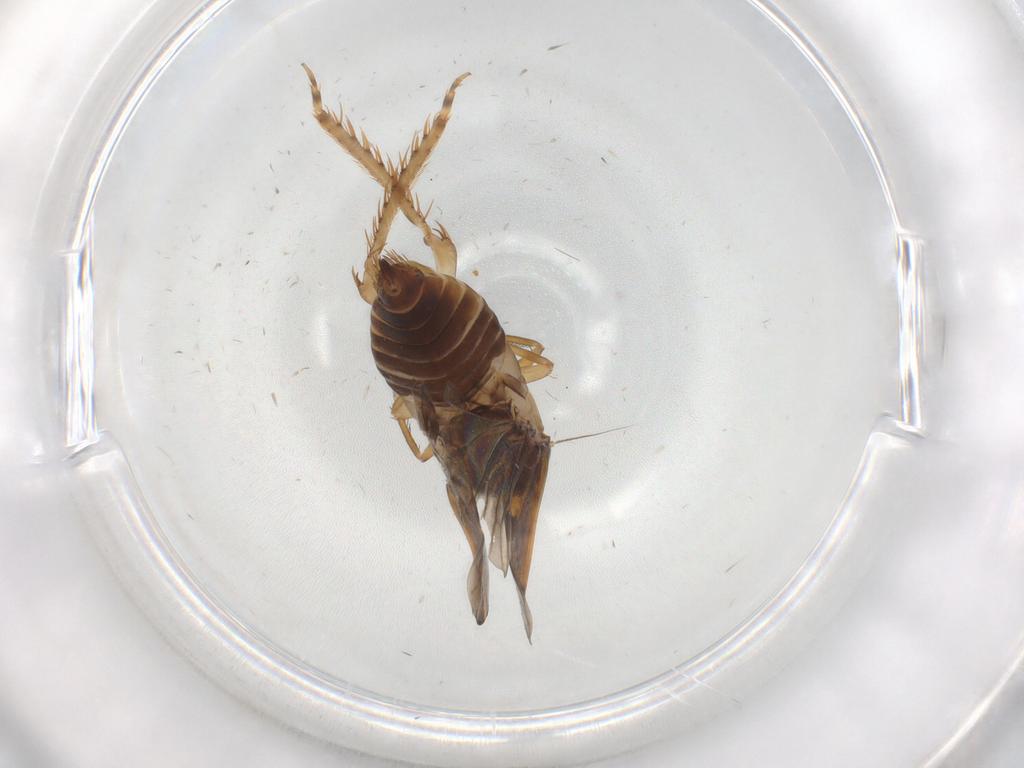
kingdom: Animalia
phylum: Arthropoda
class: Insecta
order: Hemiptera
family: Cicadellidae
